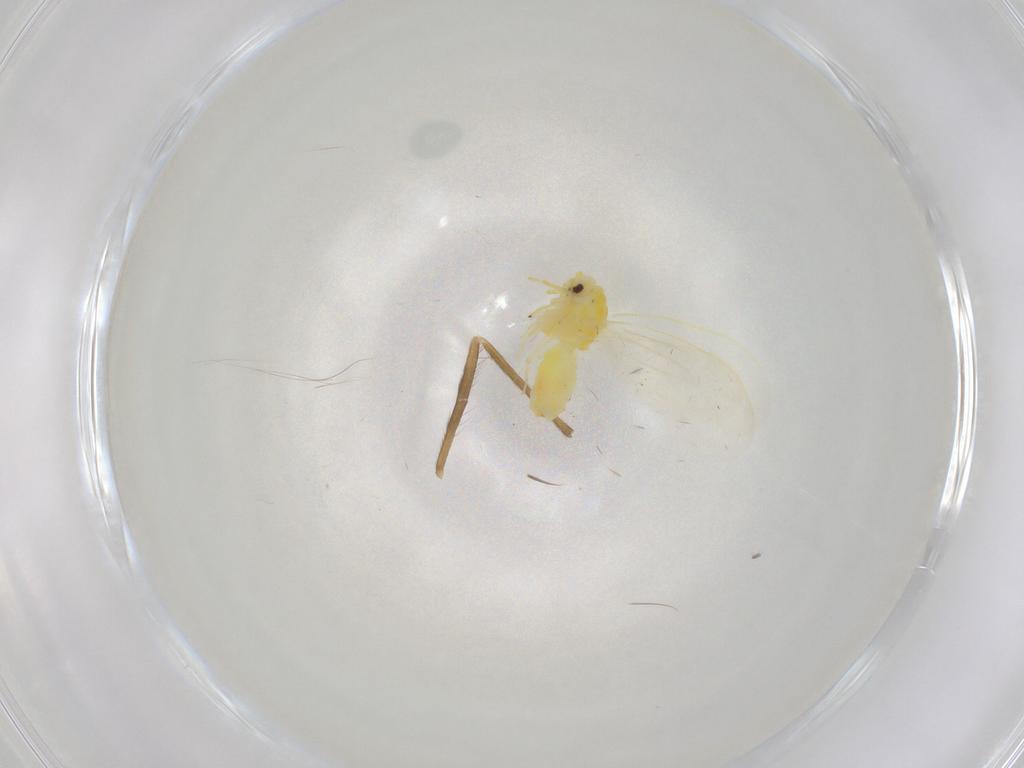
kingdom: Animalia
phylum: Arthropoda
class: Insecta
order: Hemiptera
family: Aleyrodidae
